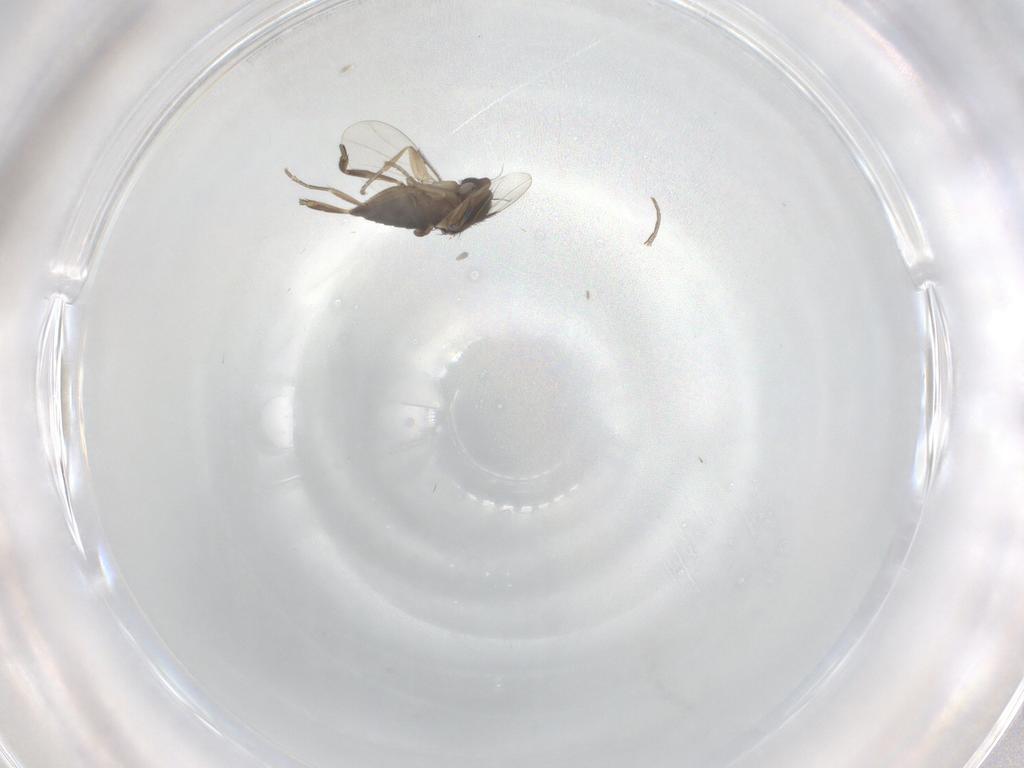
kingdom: Animalia
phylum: Arthropoda
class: Insecta
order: Diptera
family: Phoridae
